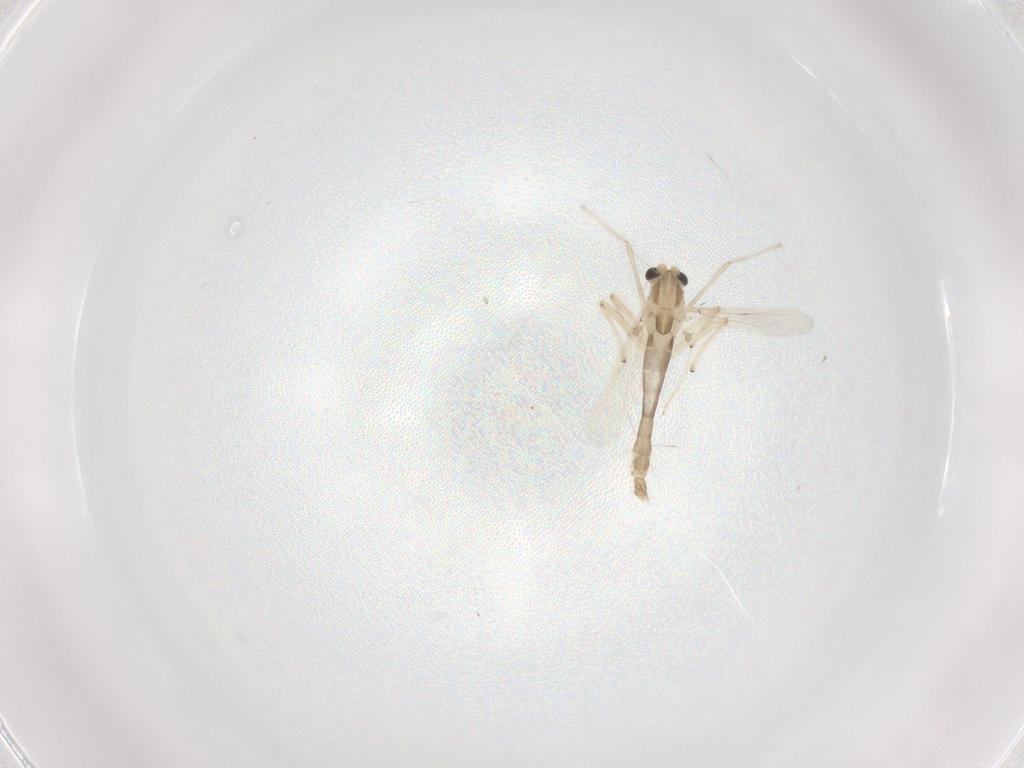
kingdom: Animalia
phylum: Arthropoda
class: Insecta
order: Diptera
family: Chironomidae
